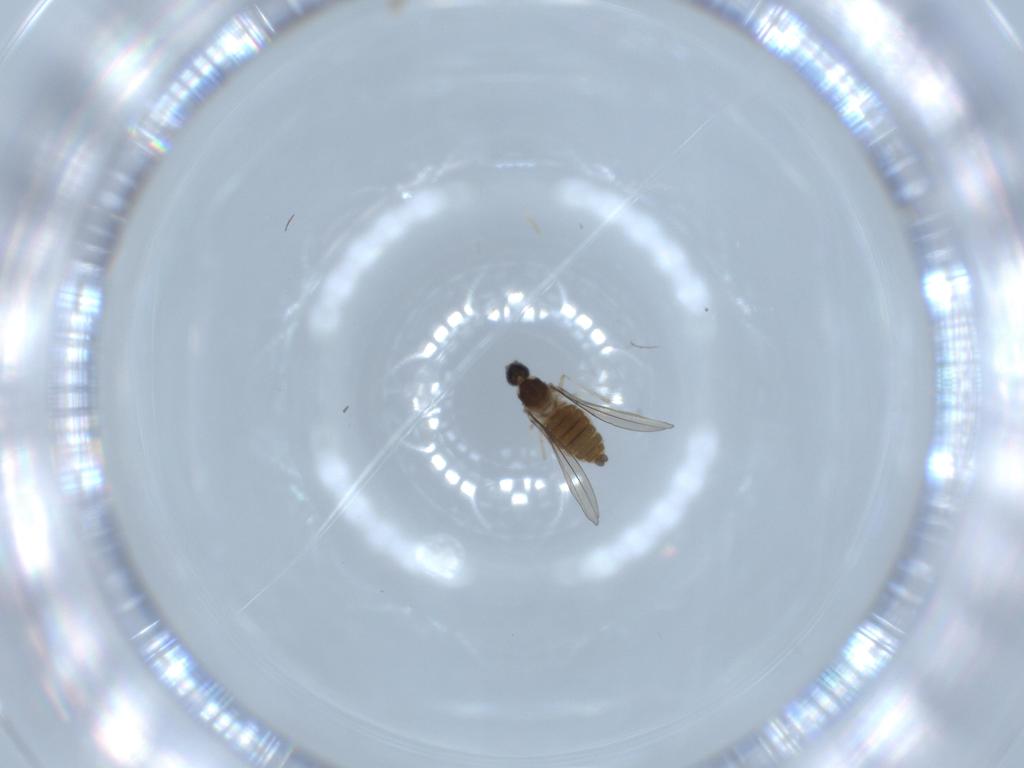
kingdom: Animalia
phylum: Arthropoda
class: Insecta
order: Diptera
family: Cecidomyiidae
